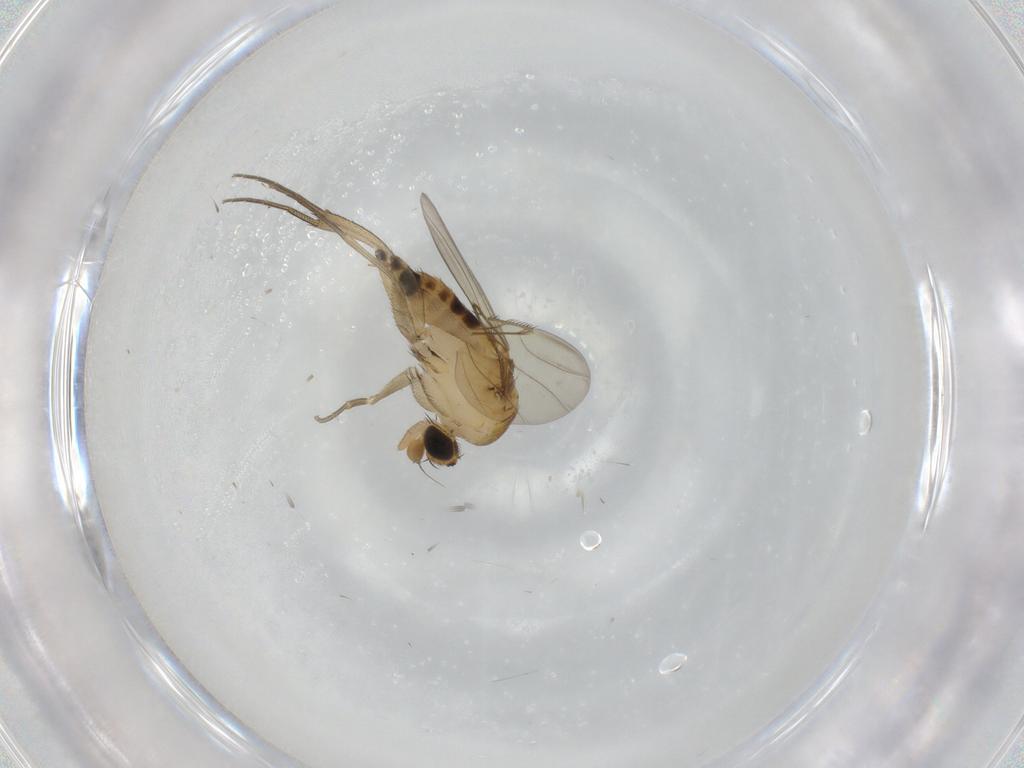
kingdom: Animalia
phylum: Arthropoda
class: Insecta
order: Diptera
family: Phoridae
